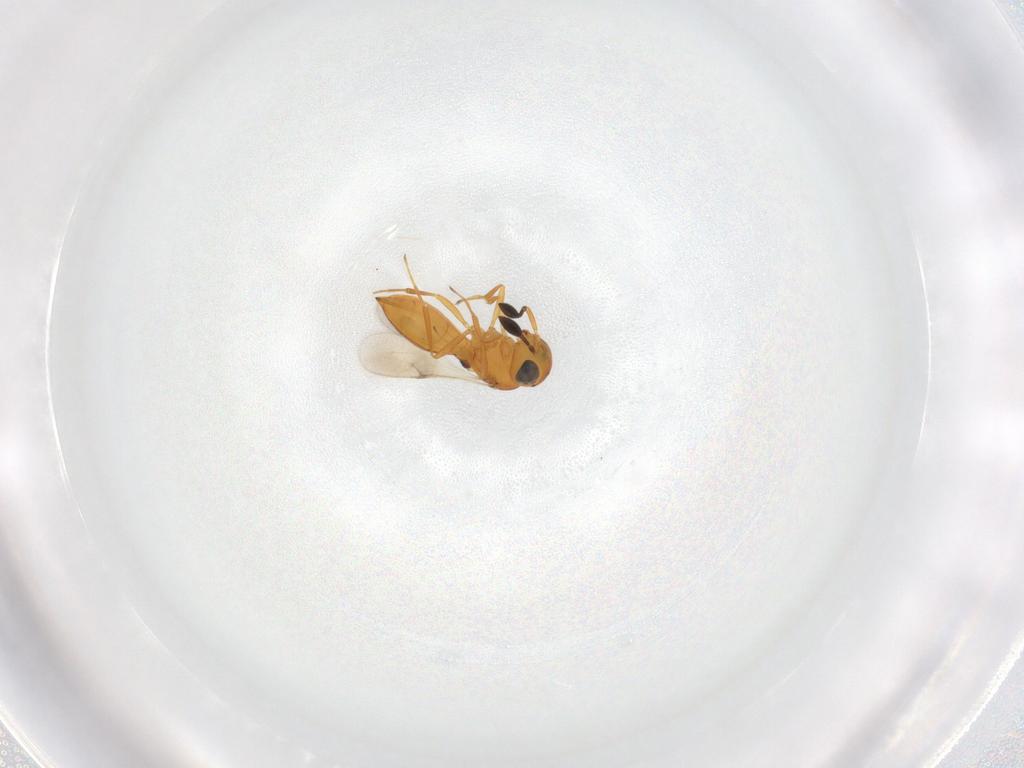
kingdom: Animalia
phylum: Arthropoda
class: Insecta
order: Hymenoptera
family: Scelionidae
